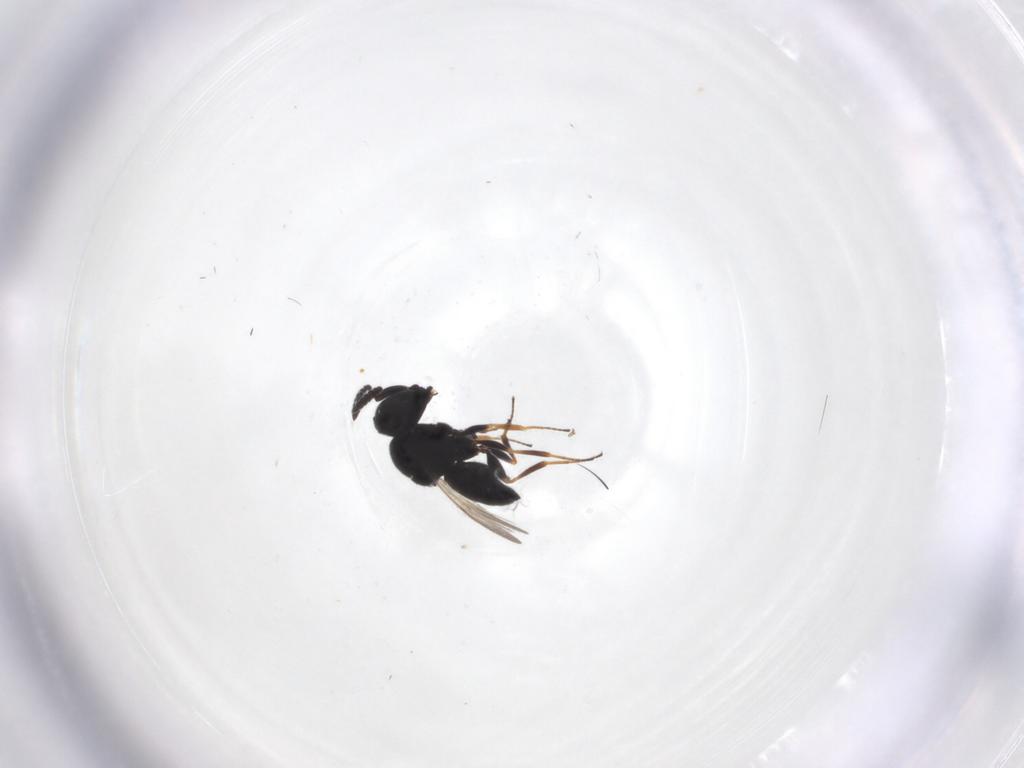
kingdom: Animalia
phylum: Arthropoda
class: Insecta
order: Hymenoptera
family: Scelionidae
